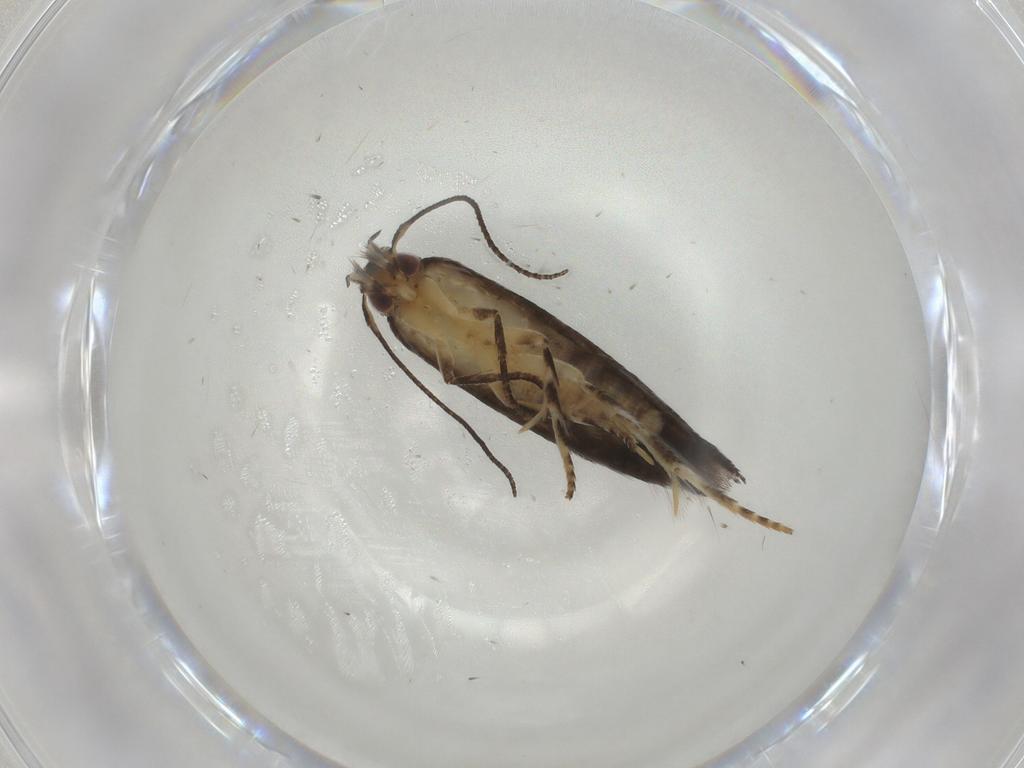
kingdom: Animalia
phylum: Arthropoda
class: Insecta
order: Lepidoptera
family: Elachistidae
